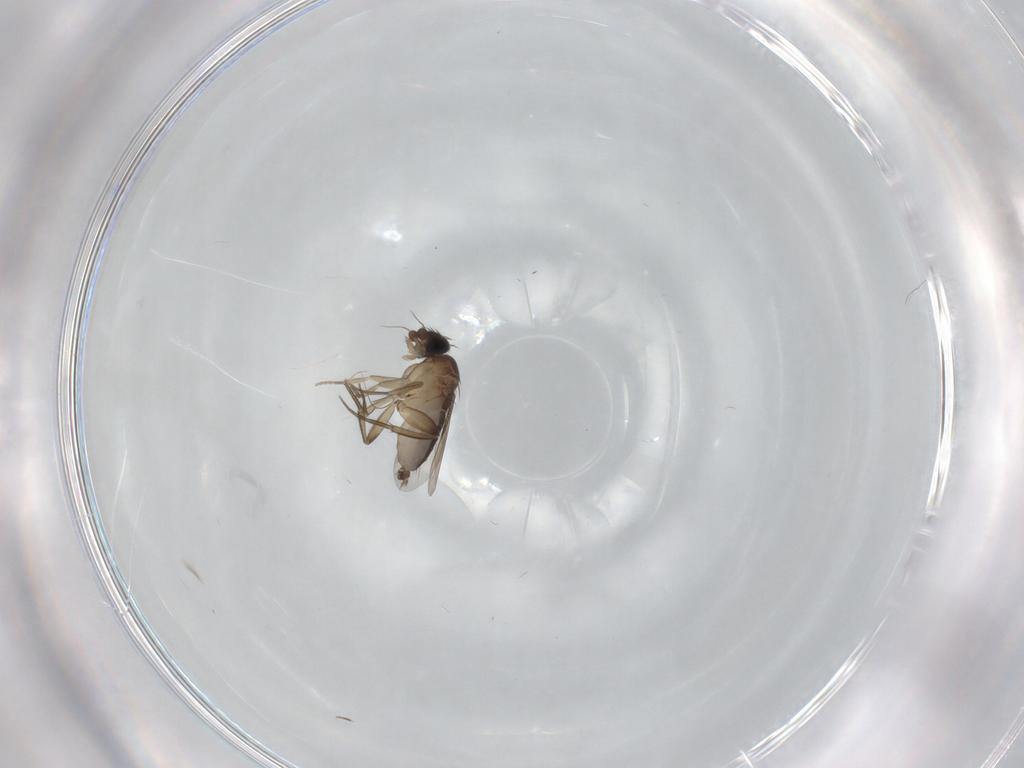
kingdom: Animalia
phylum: Arthropoda
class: Insecta
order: Diptera
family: Phoridae
